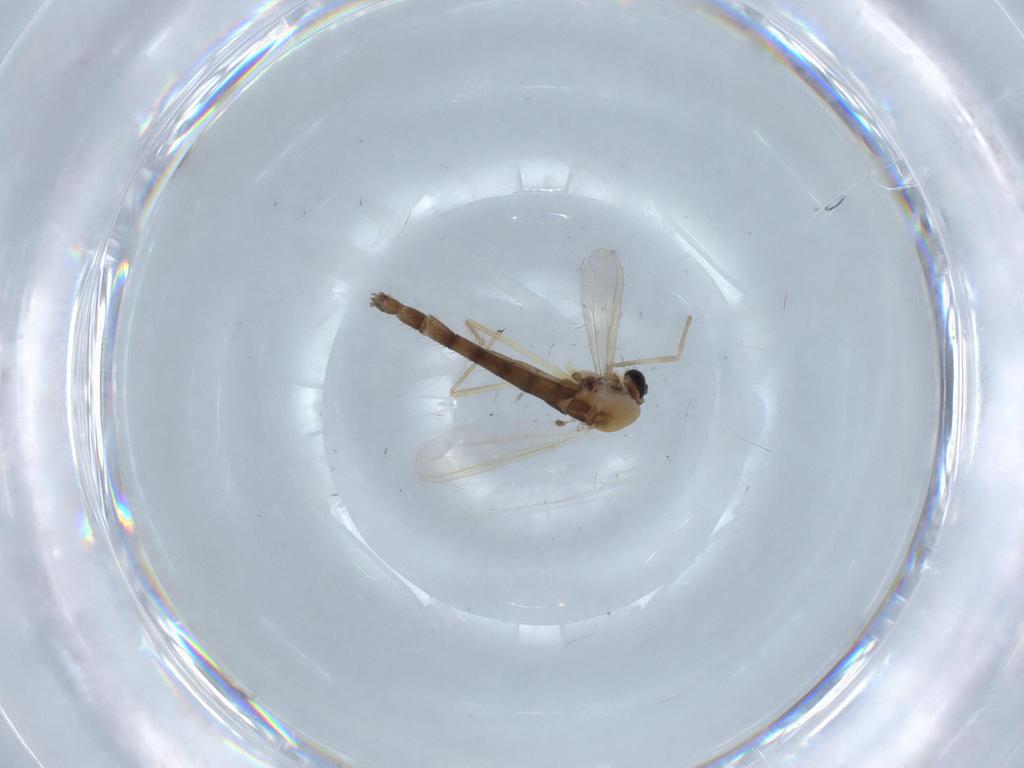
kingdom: Animalia
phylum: Arthropoda
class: Insecta
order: Diptera
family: Chironomidae
